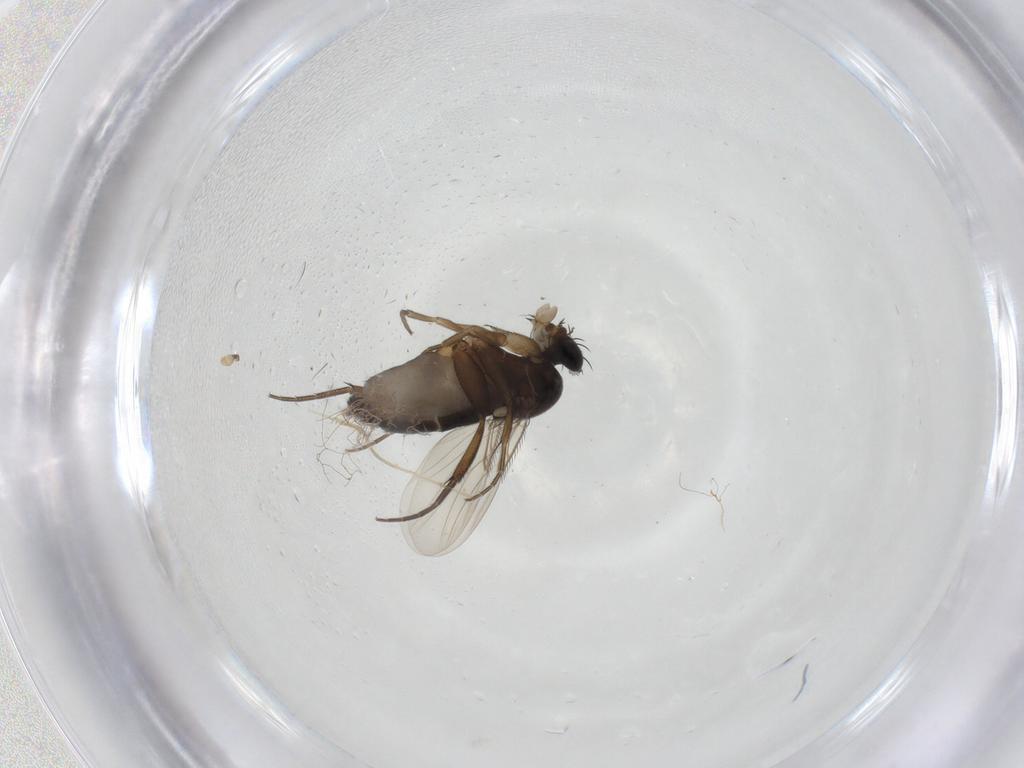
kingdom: Animalia
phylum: Arthropoda
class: Insecta
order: Diptera
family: Phoridae
